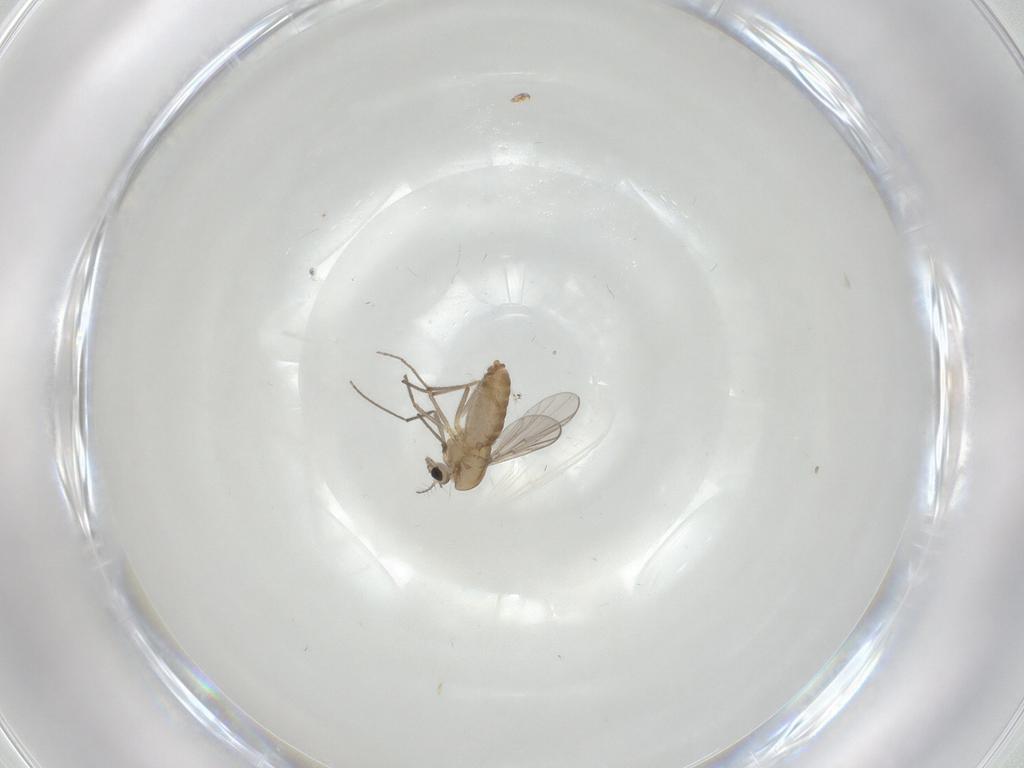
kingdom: Animalia
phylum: Arthropoda
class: Insecta
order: Diptera
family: Chironomidae
